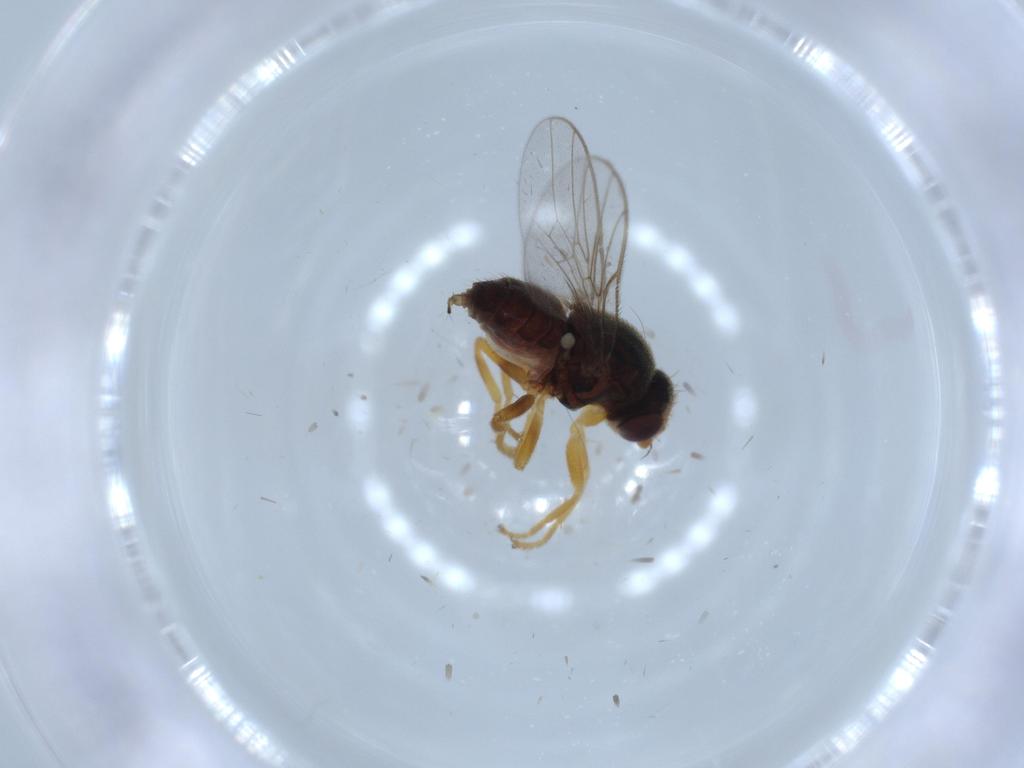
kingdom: Animalia
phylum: Arthropoda
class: Insecta
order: Diptera
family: Chloropidae
